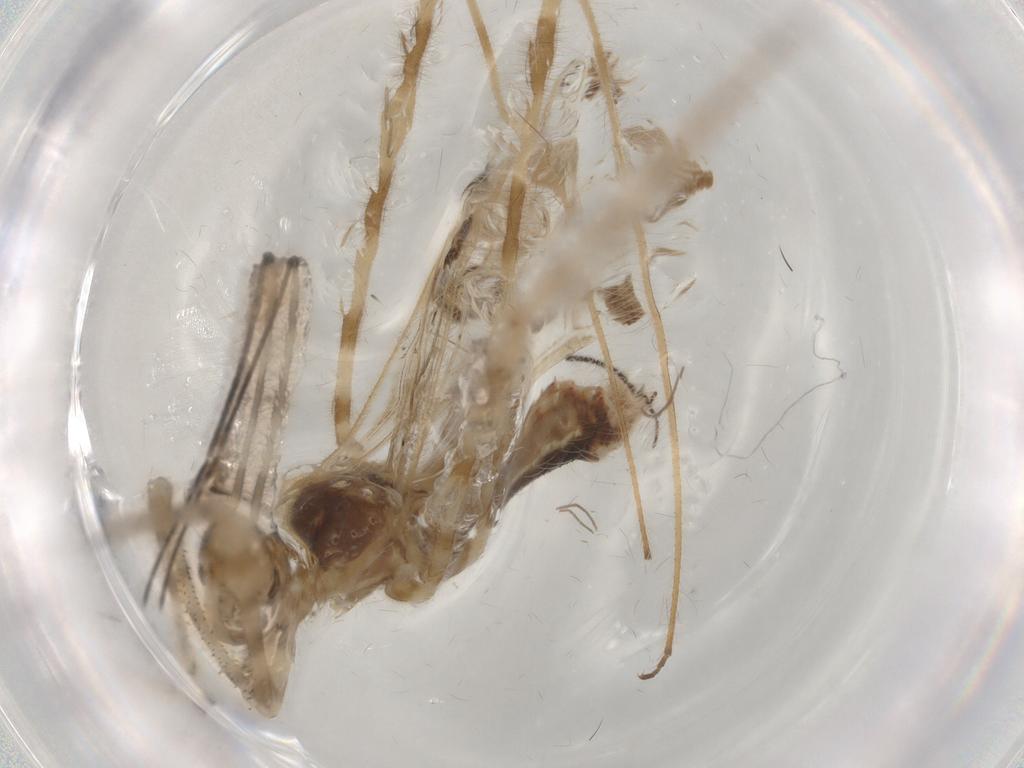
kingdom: Animalia
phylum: Arthropoda
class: Insecta
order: Diptera
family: Sciaridae
